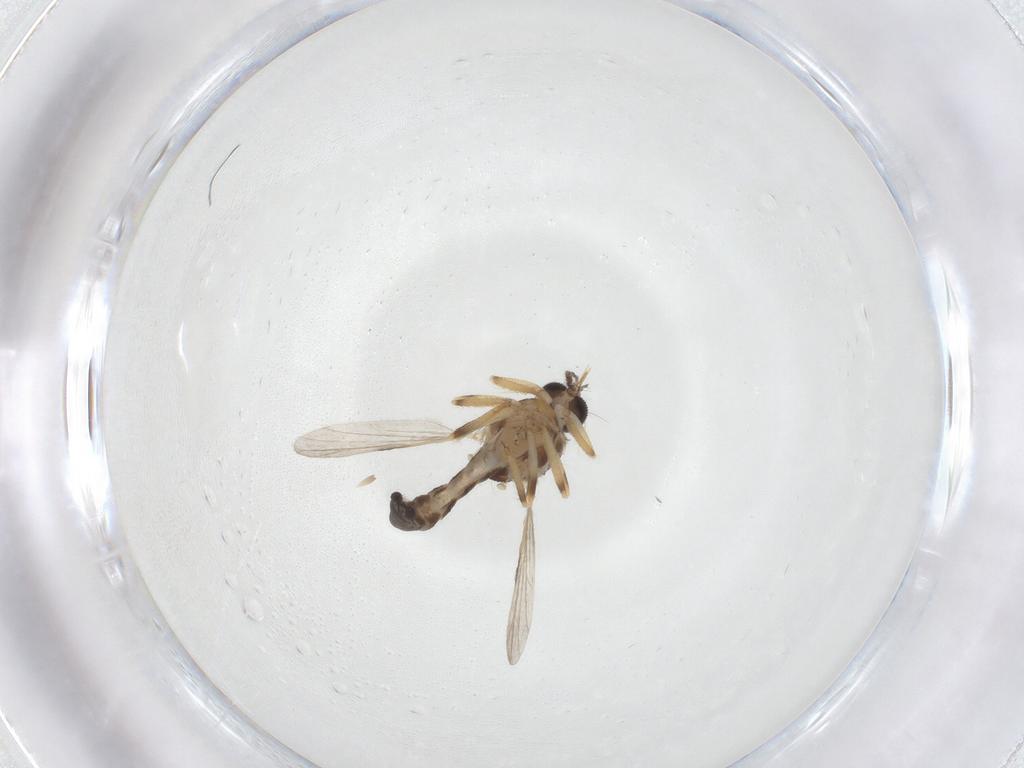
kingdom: Animalia
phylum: Arthropoda
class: Insecta
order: Diptera
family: Ceratopogonidae
